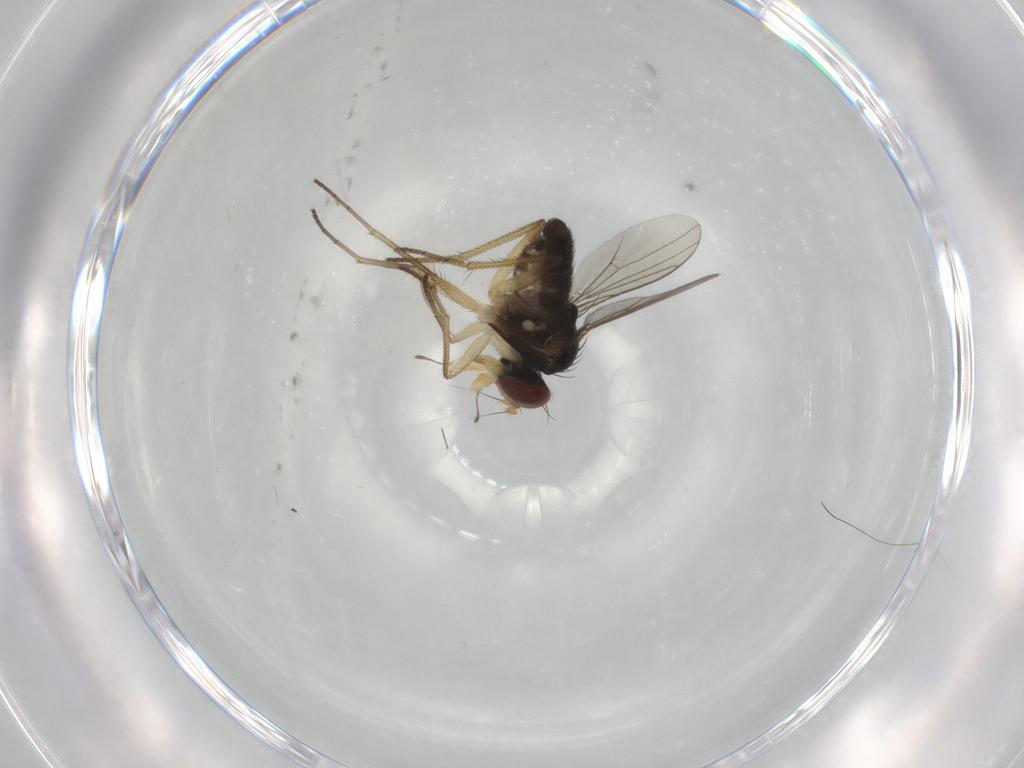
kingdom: Animalia
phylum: Arthropoda
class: Insecta
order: Diptera
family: Dolichopodidae
